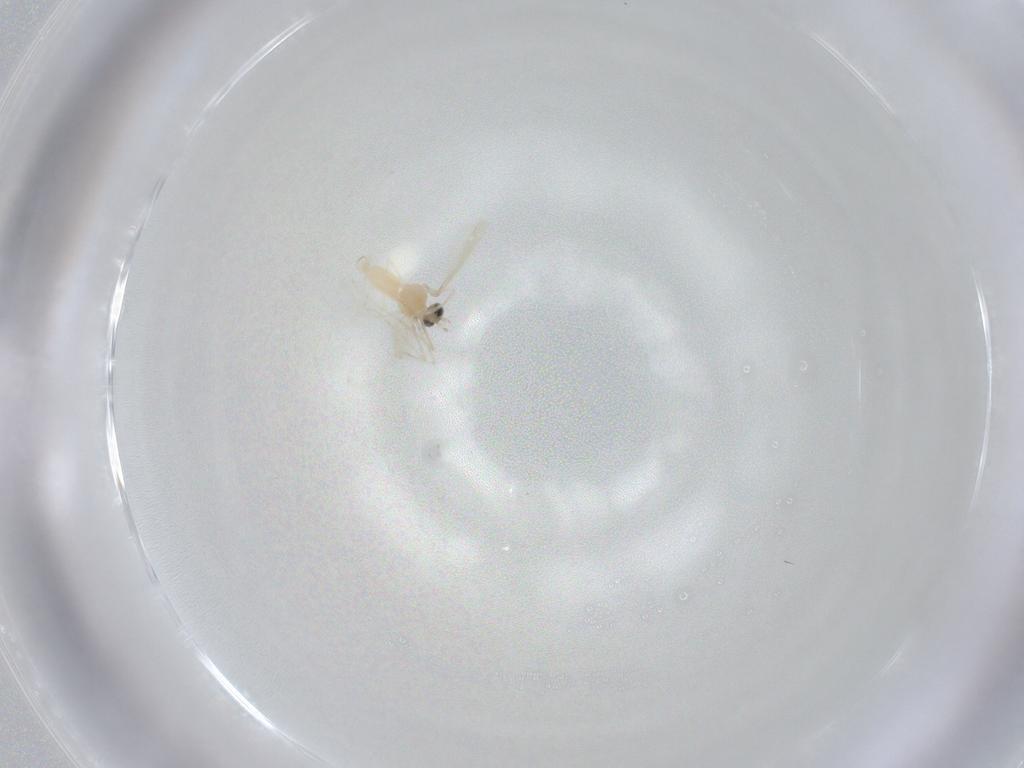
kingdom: Animalia
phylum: Arthropoda
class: Insecta
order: Diptera
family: Cecidomyiidae
